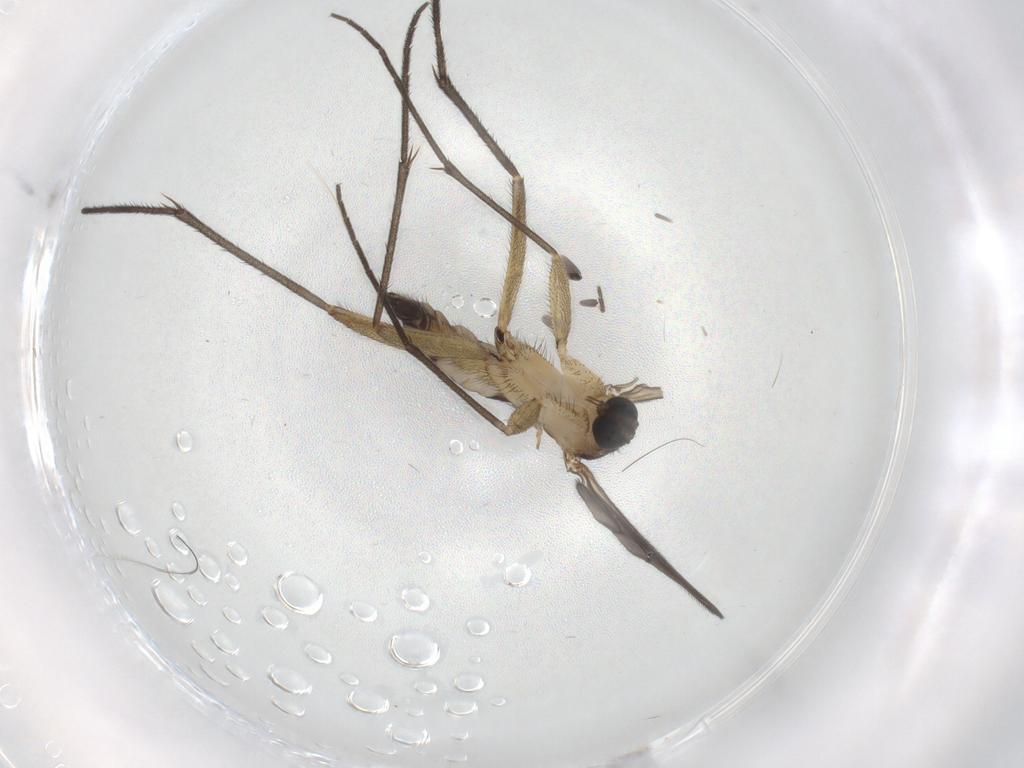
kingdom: Animalia
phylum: Arthropoda
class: Insecta
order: Diptera
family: Sciaridae
